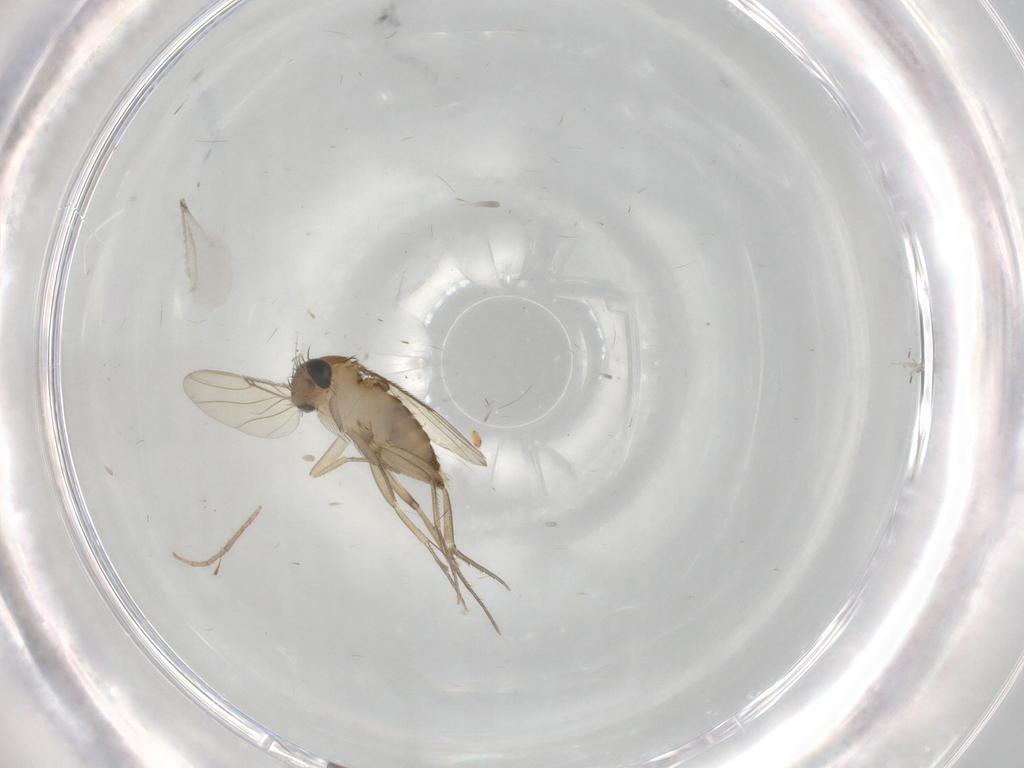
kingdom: Animalia
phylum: Arthropoda
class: Insecta
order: Diptera
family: Phoridae
